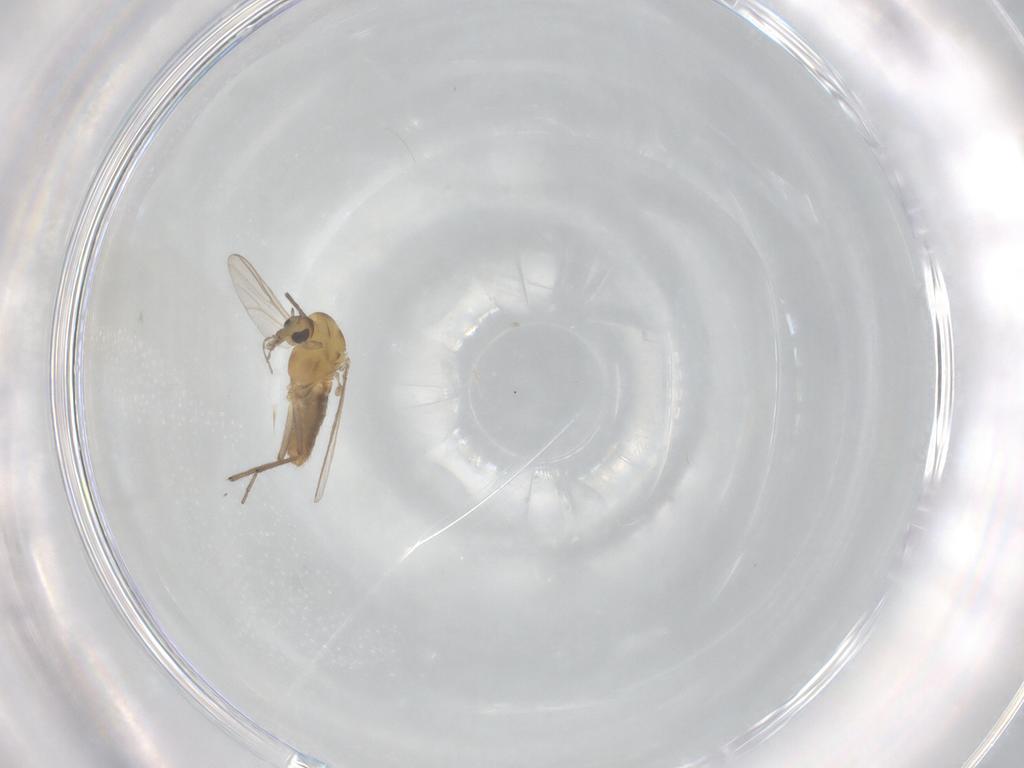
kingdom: Animalia
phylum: Arthropoda
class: Insecta
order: Diptera
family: Chironomidae
